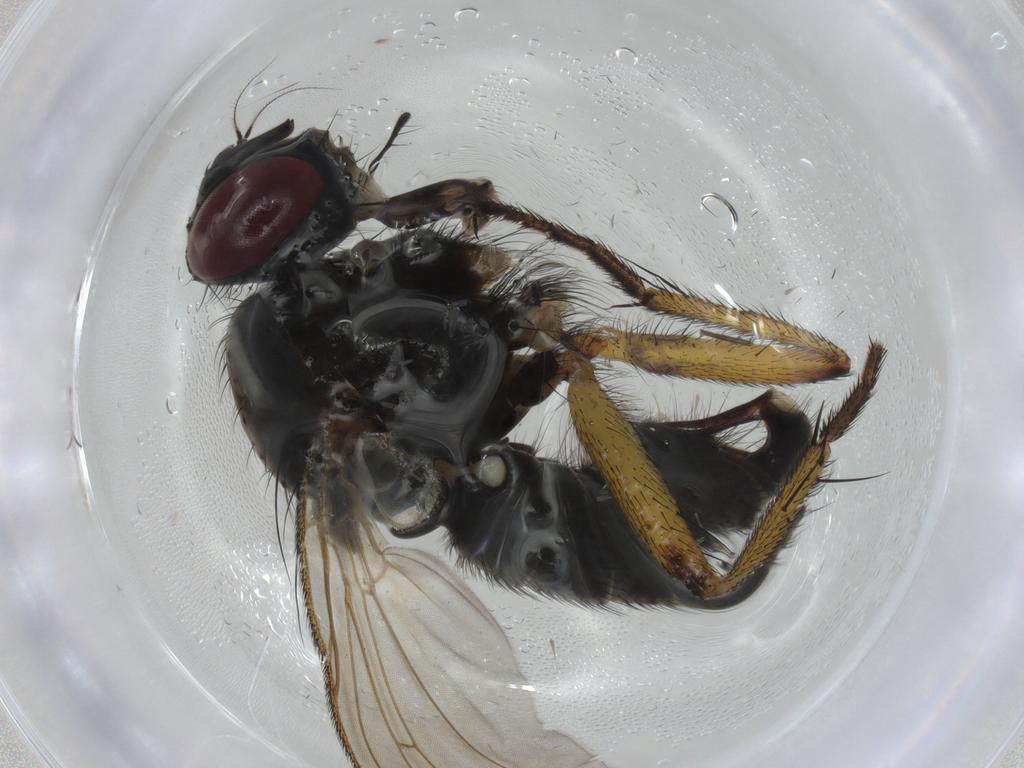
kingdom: Animalia
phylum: Arthropoda
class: Insecta
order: Diptera
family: Muscidae
